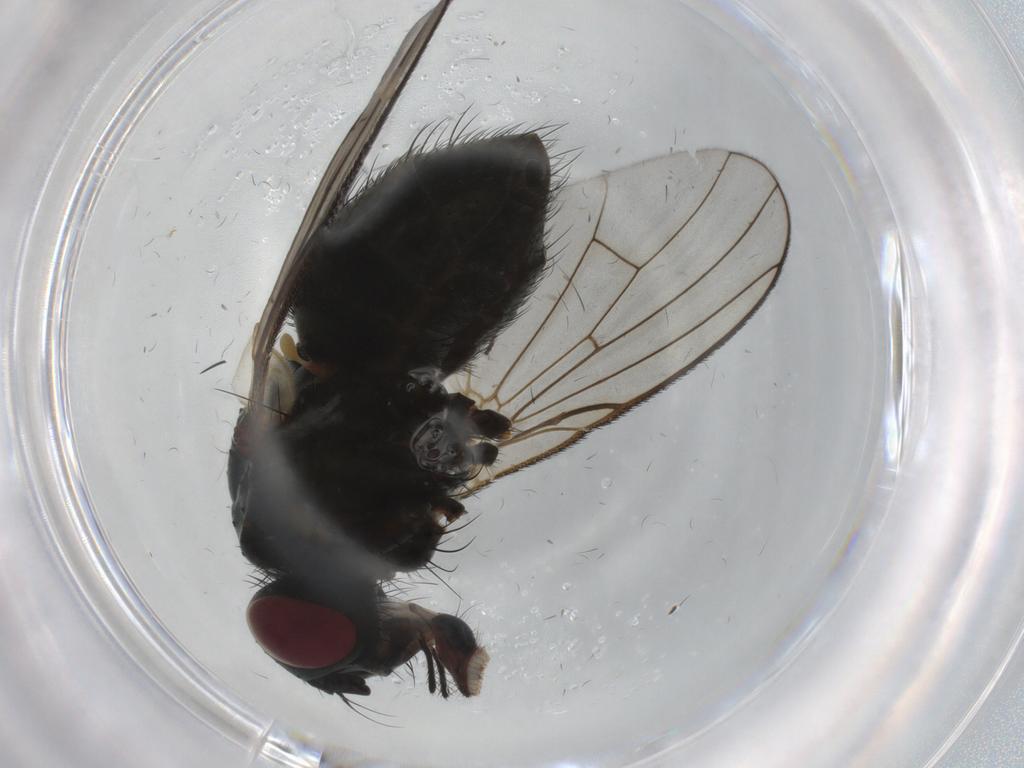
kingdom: Animalia
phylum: Arthropoda
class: Insecta
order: Diptera
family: Muscidae
